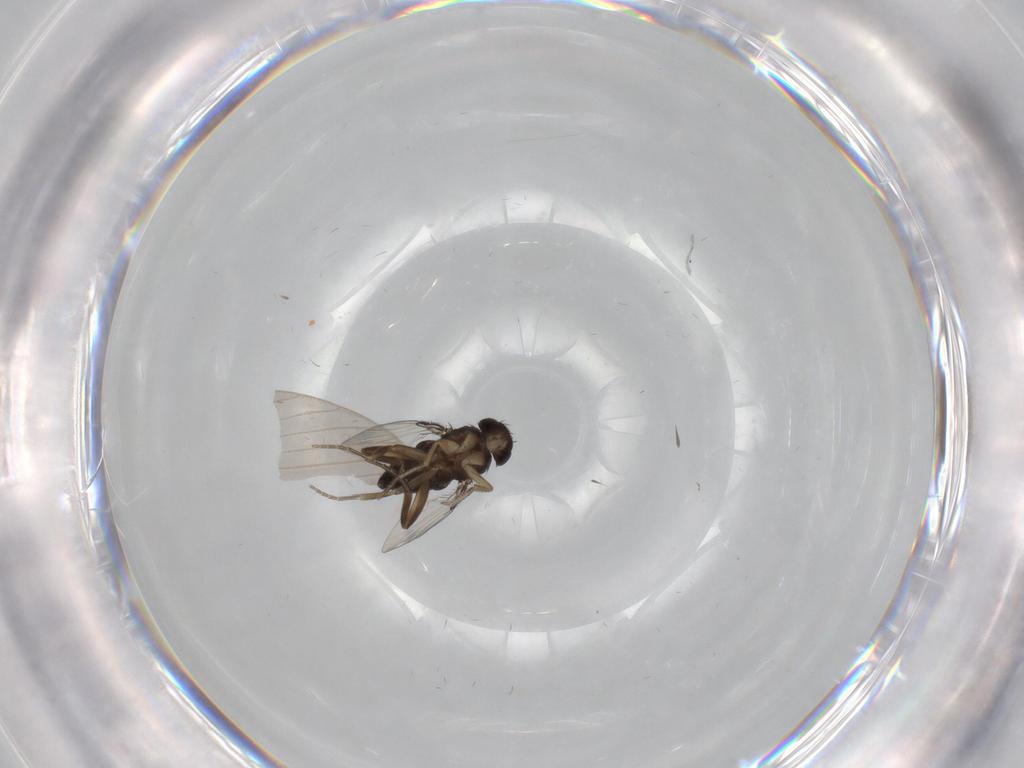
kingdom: Animalia
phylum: Arthropoda
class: Insecta
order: Diptera
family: Phoridae
